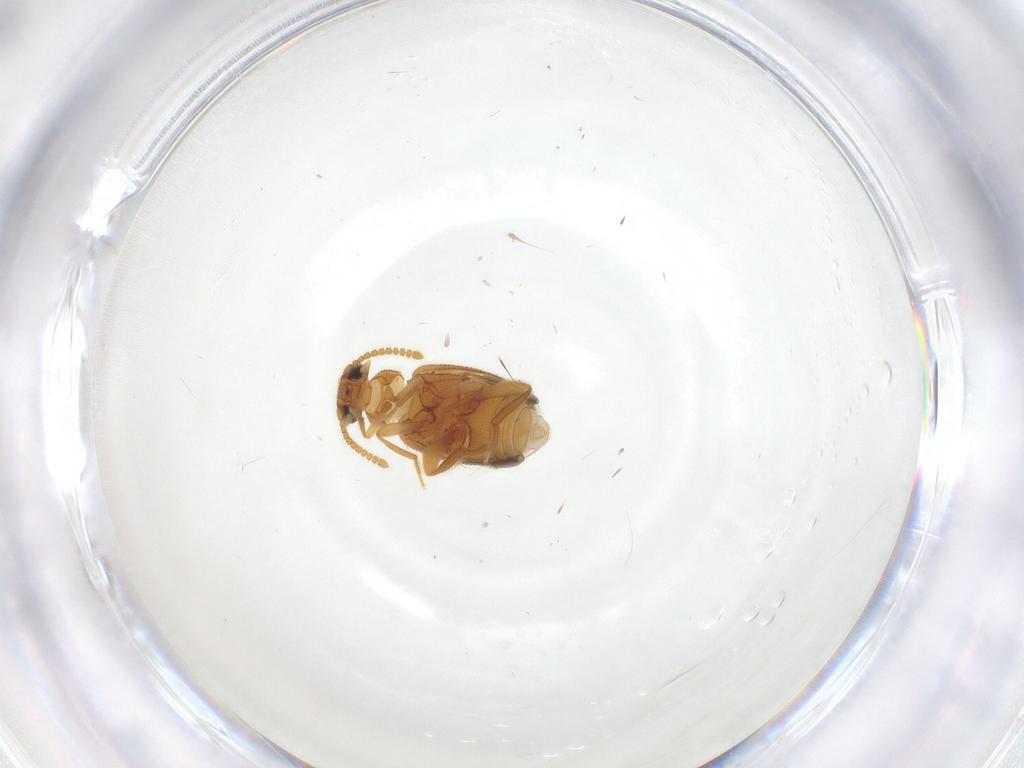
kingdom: Animalia
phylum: Arthropoda
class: Insecta
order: Coleoptera
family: Aderidae
